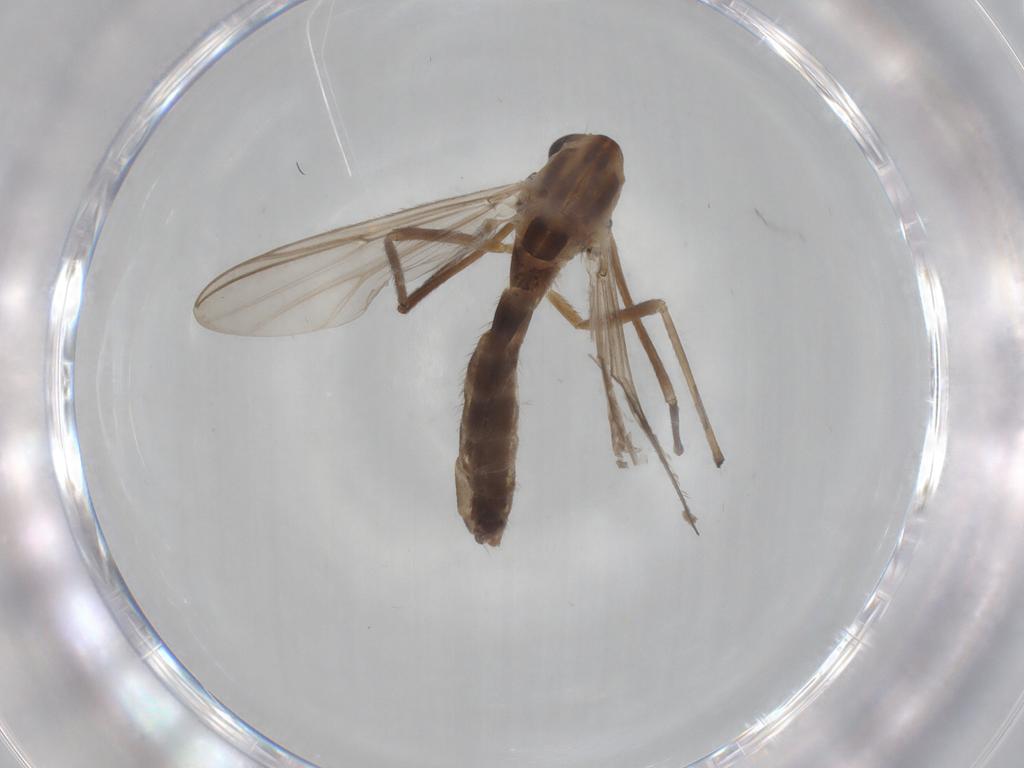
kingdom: Animalia
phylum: Arthropoda
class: Insecta
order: Diptera
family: Chironomidae
